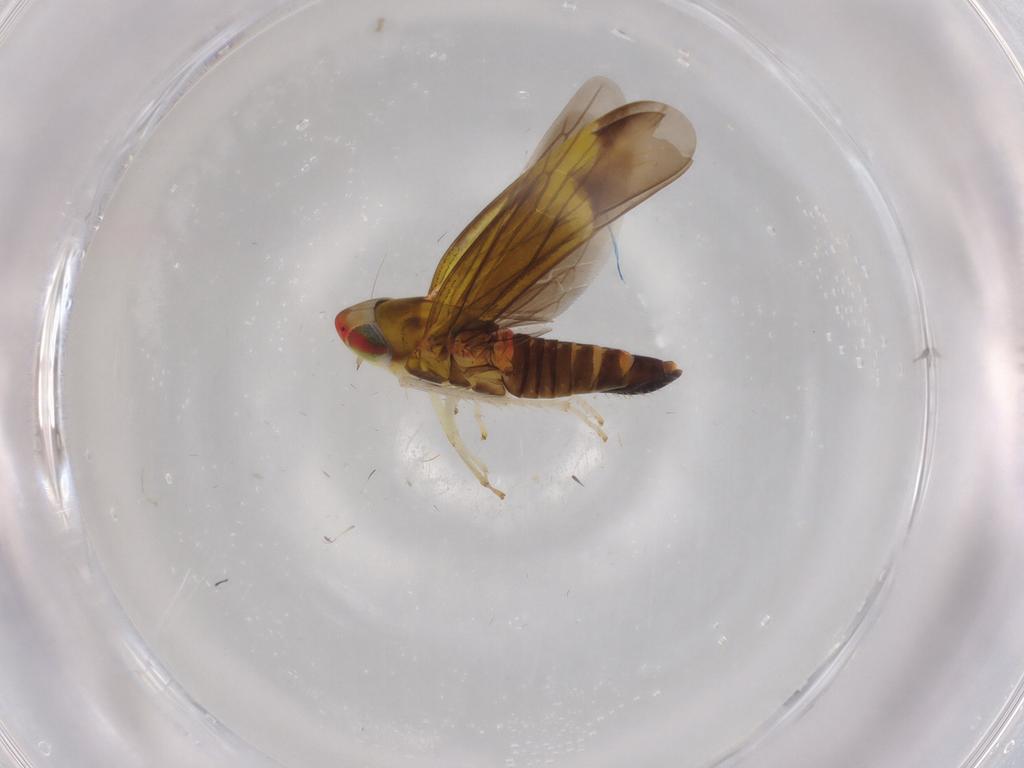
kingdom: Animalia
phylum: Arthropoda
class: Insecta
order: Hemiptera
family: Cicadellidae
